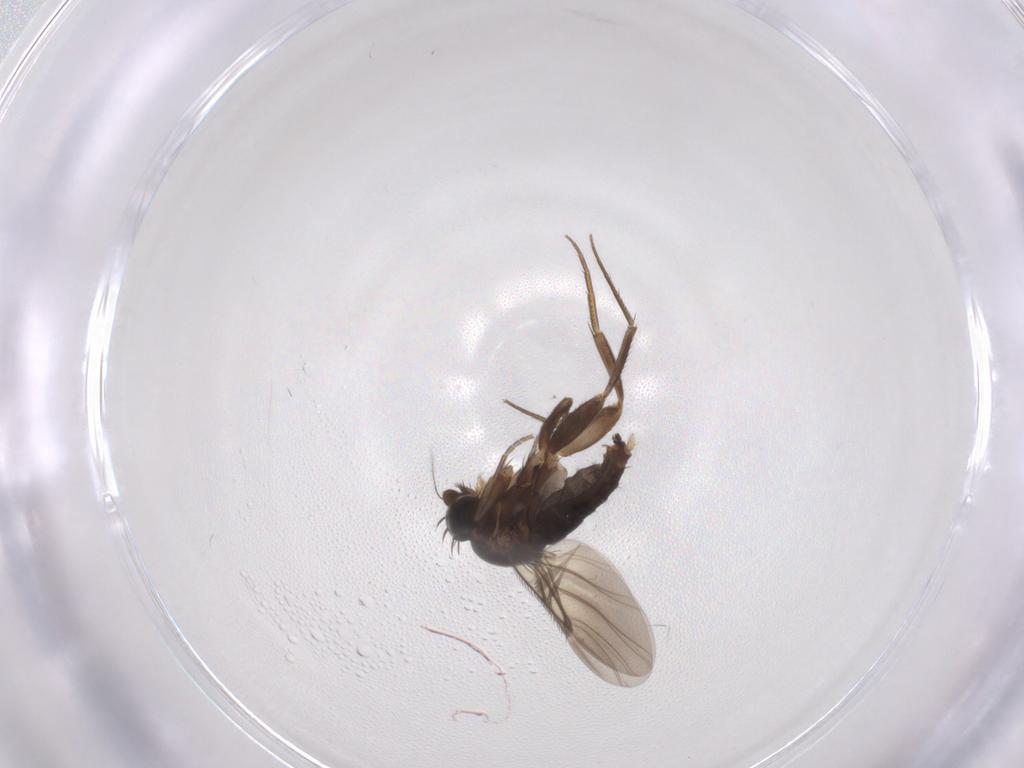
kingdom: Animalia
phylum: Arthropoda
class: Insecta
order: Diptera
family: Phoridae
